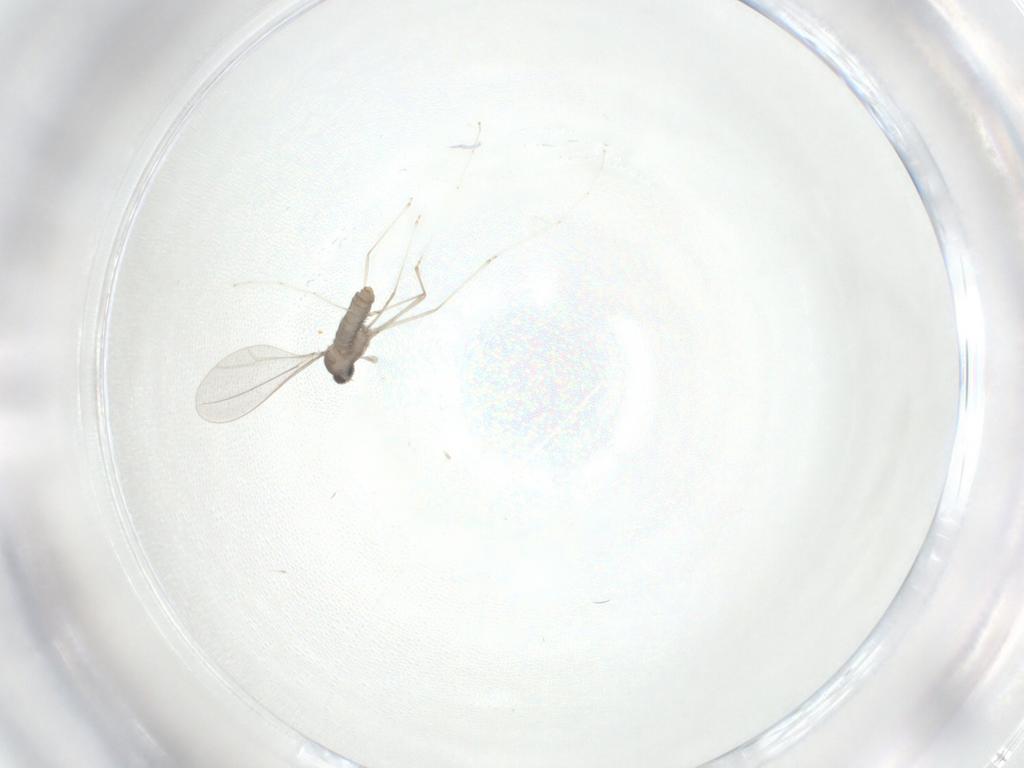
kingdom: Animalia
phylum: Arthropoda
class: Insecta
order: Diptera
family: Cecidomyiidae
